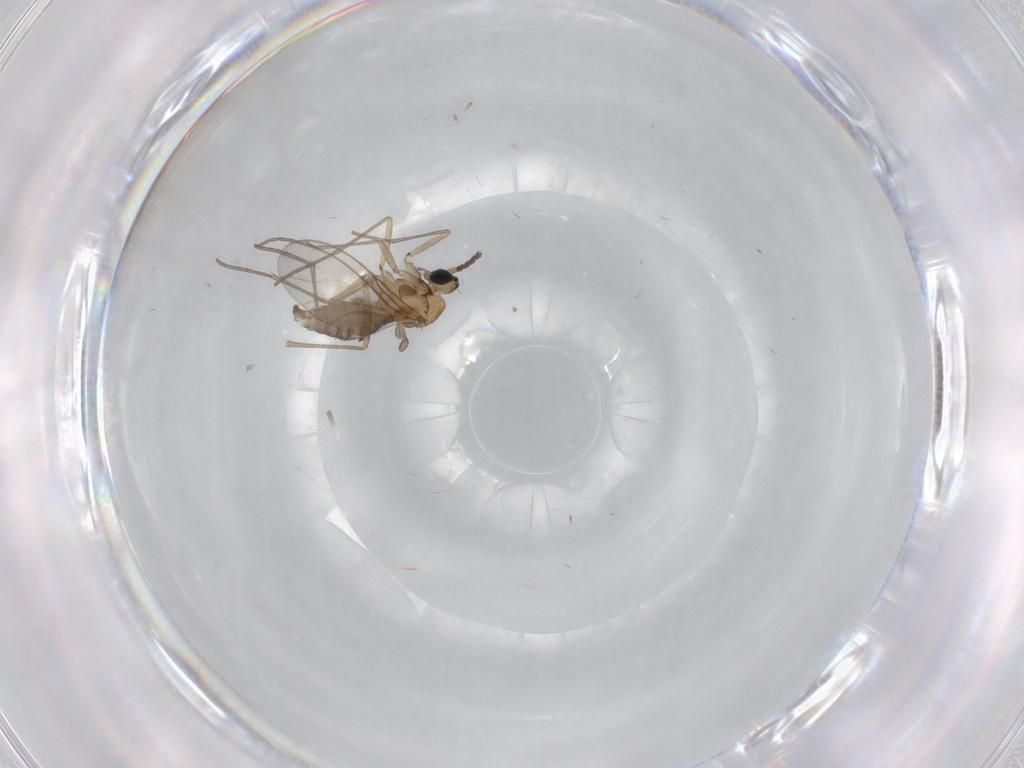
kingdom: Animalia
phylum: Arthropoda
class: Insecta
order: Diptera
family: Sciaridae
